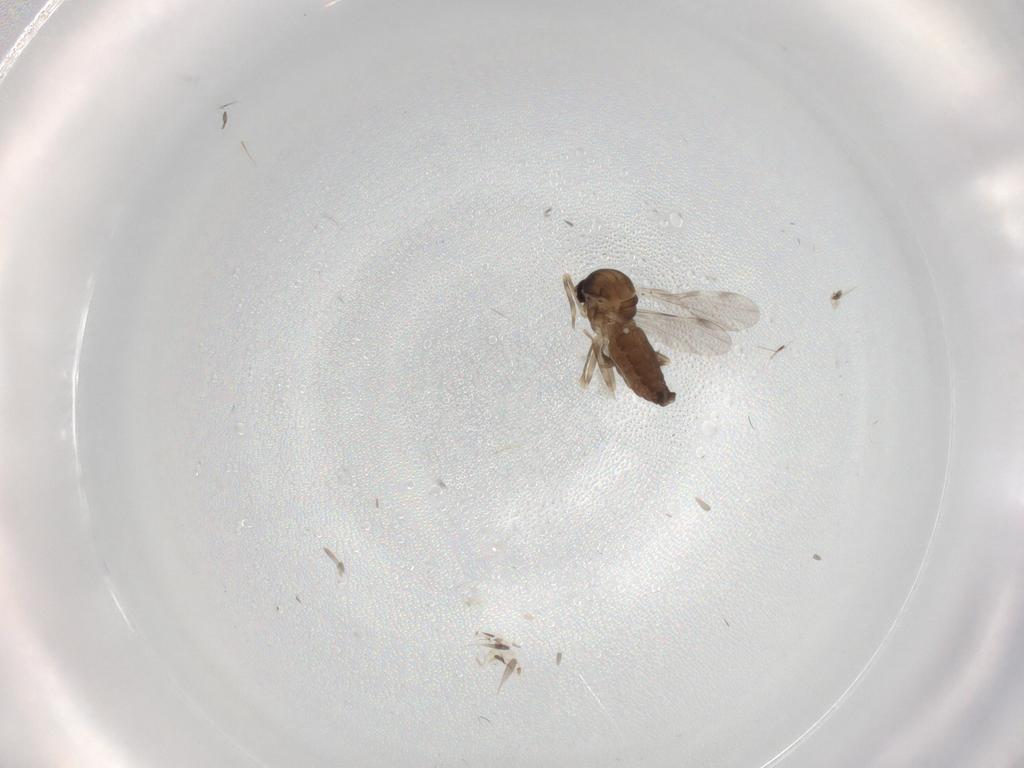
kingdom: Animalia
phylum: Arthropoda
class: Insecta
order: Diptera
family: Ceratopogonidae
